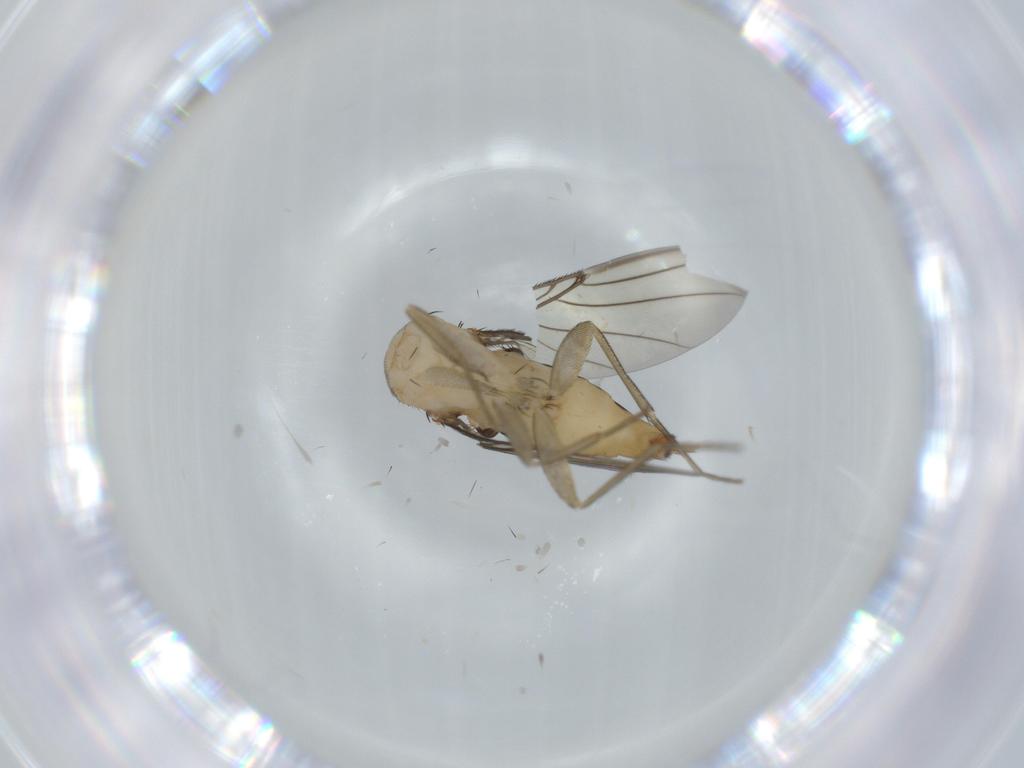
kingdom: Animalia
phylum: Arthropoda
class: Insecta
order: Diptera
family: Phoridae
